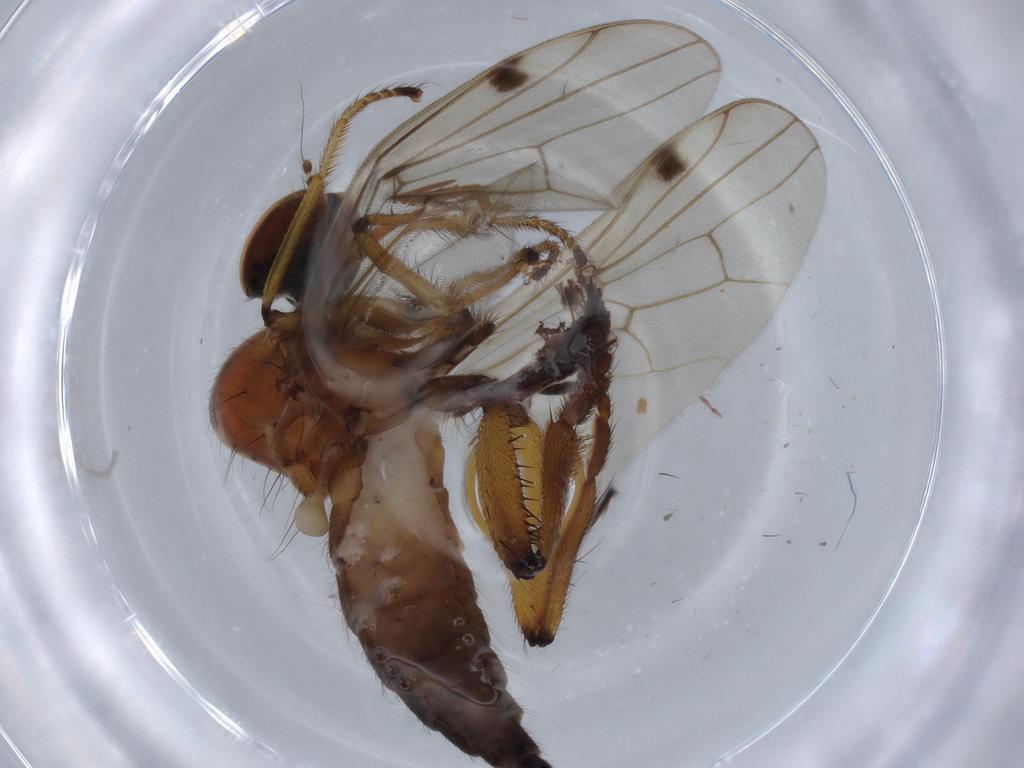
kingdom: Animalia
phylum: Arthropoda
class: Insecta
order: Diptera
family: Hybotidae
